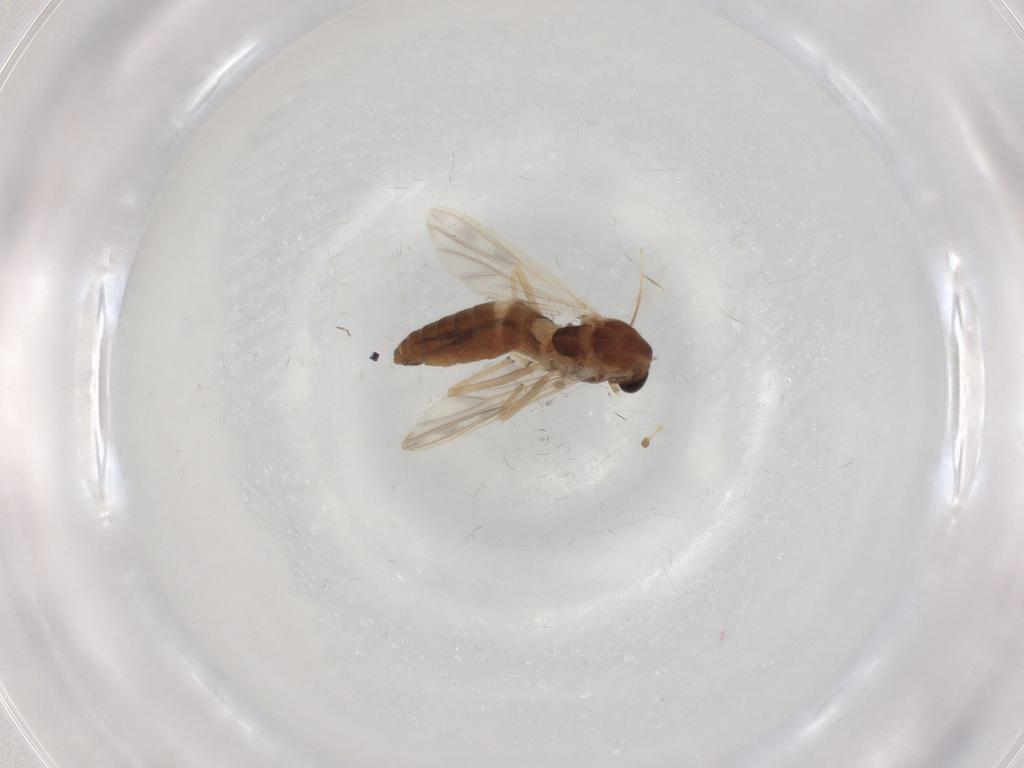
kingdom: Animalia
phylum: Arthropoda
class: Insecta
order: Diptera
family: Chironomidae
